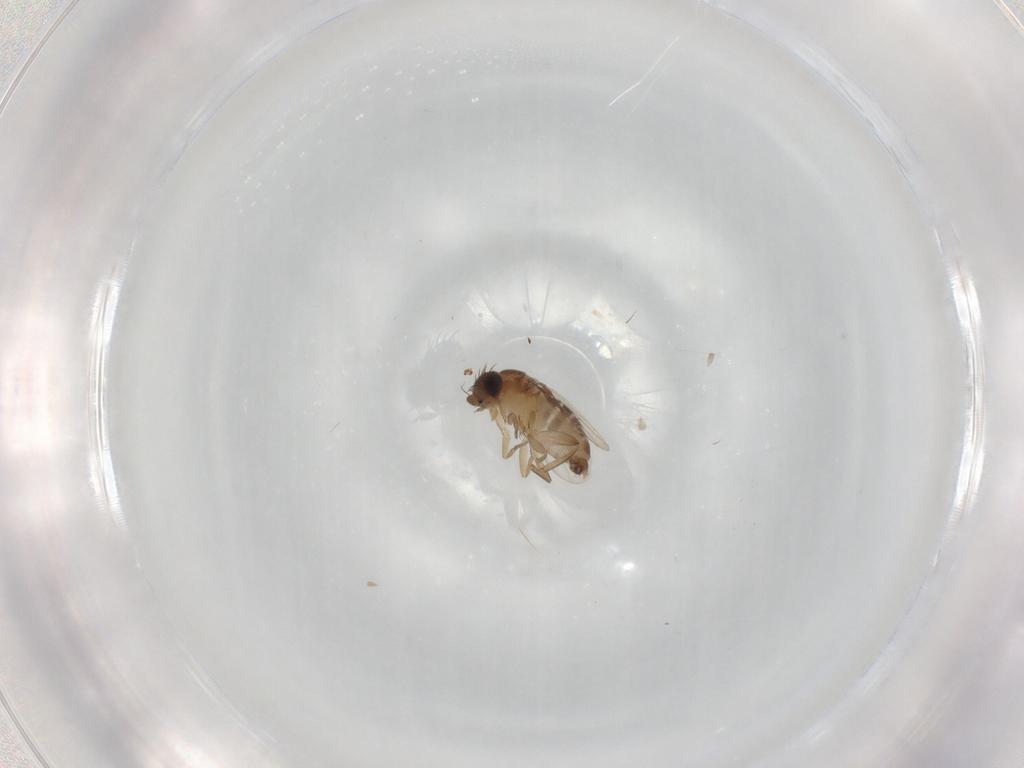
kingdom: Animalia
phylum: Arthropoda
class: Insecta
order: Diptera
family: Phoridae
